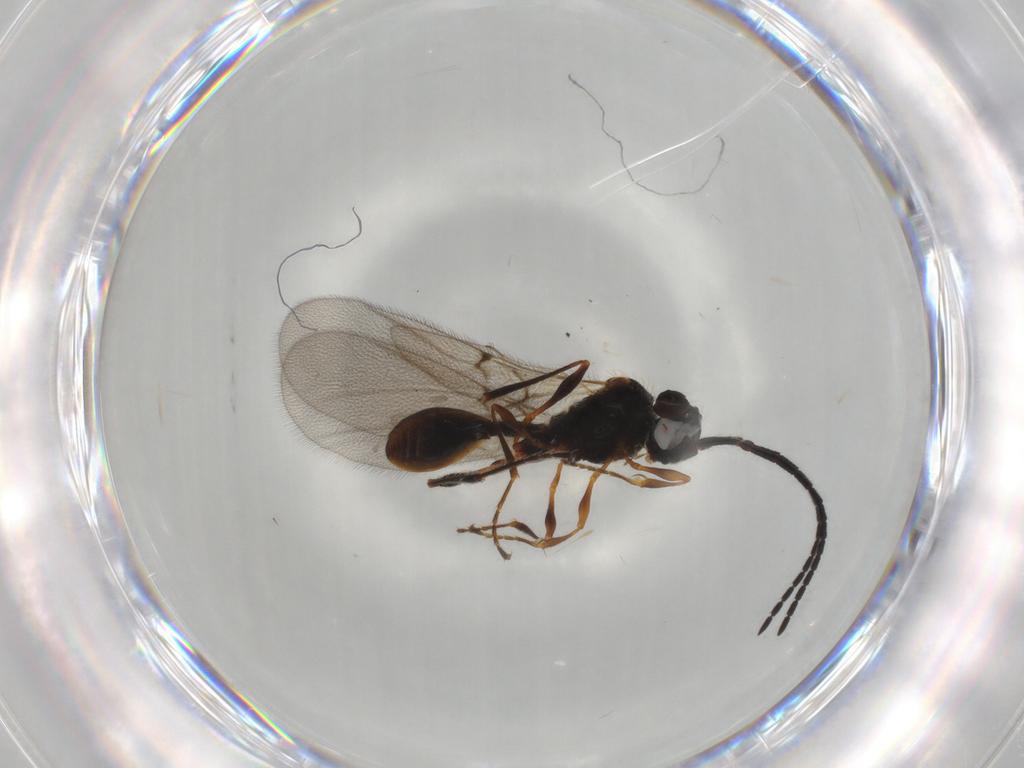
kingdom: Animalia
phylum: Arthropoda
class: Insecta
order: Hymenoptera
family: Diapriidae
